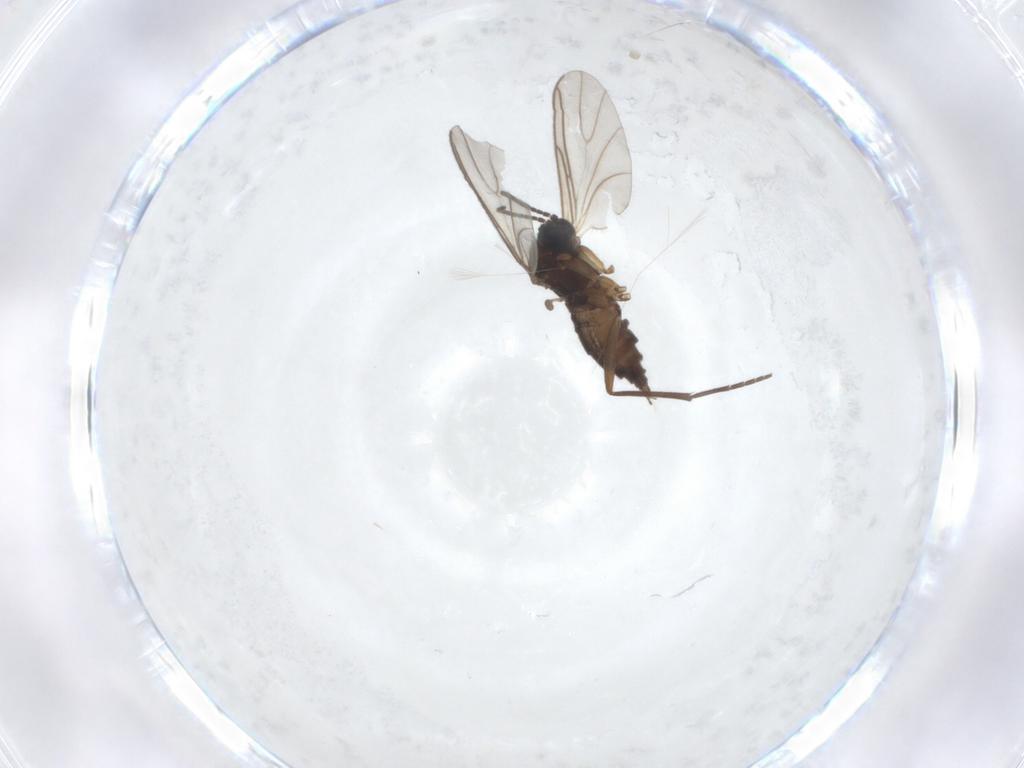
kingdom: Animalia
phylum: Arthropoda
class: Insecta
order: Diptera
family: Sciaridae
